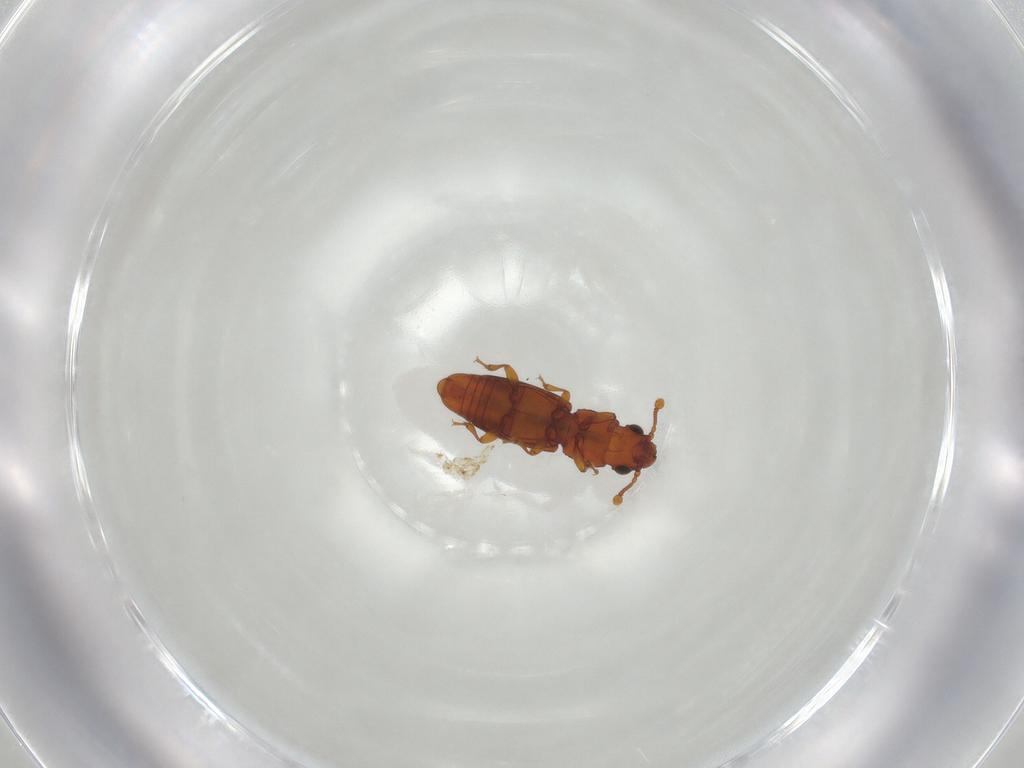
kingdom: Animalia
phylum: Arthropoda
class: Insecta
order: Coleoptera
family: Monotomidae
